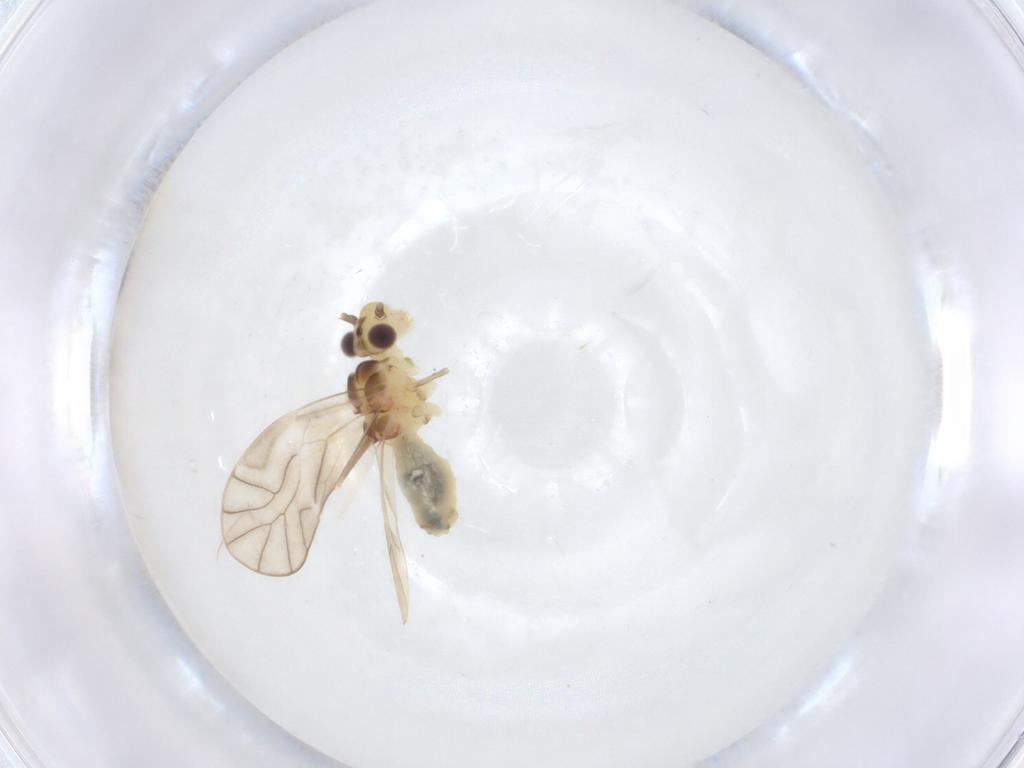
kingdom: Animalia
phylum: Arthropoda
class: Insecta
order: Psocodea
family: Caeciliusidae
